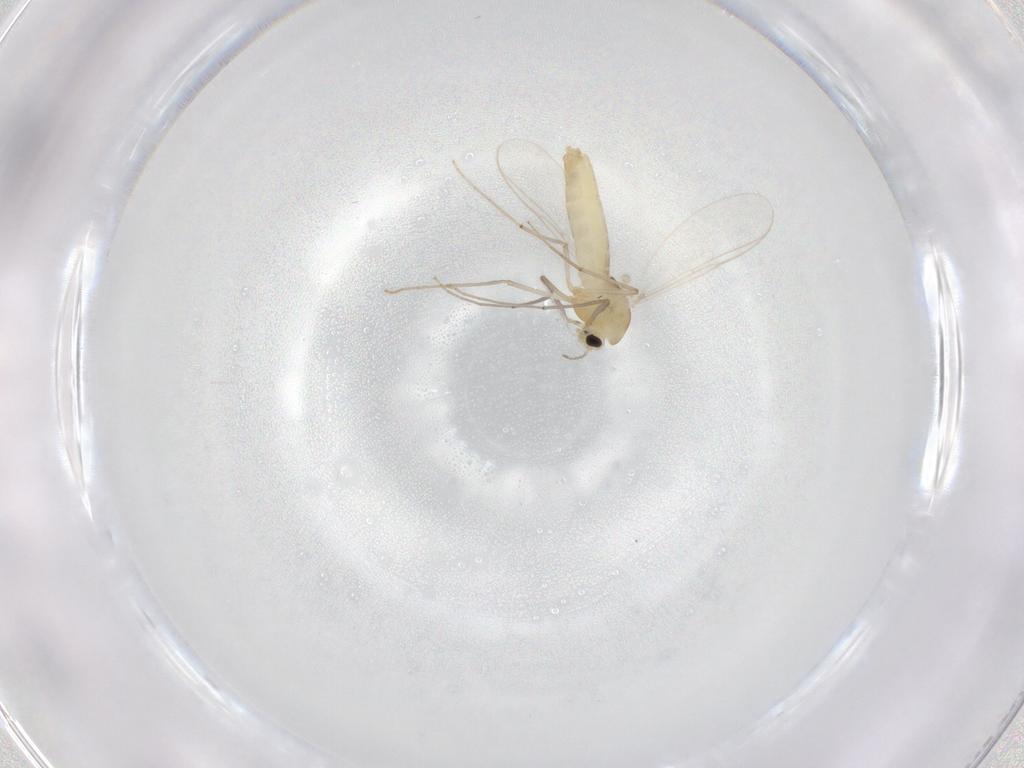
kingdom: Animalia
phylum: Arthropoda
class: Insecta
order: Diptera
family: Chironomidae
